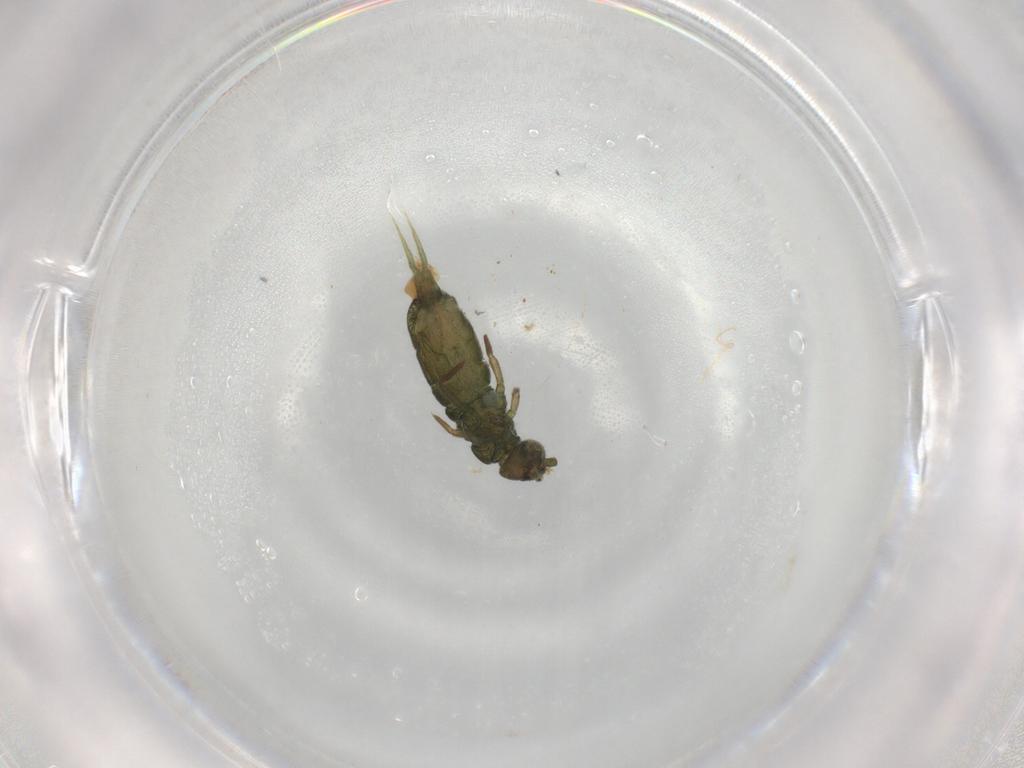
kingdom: Animalia
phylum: Arthropoda
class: Collembola
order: Entomobryomorpha
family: Isotomidae
